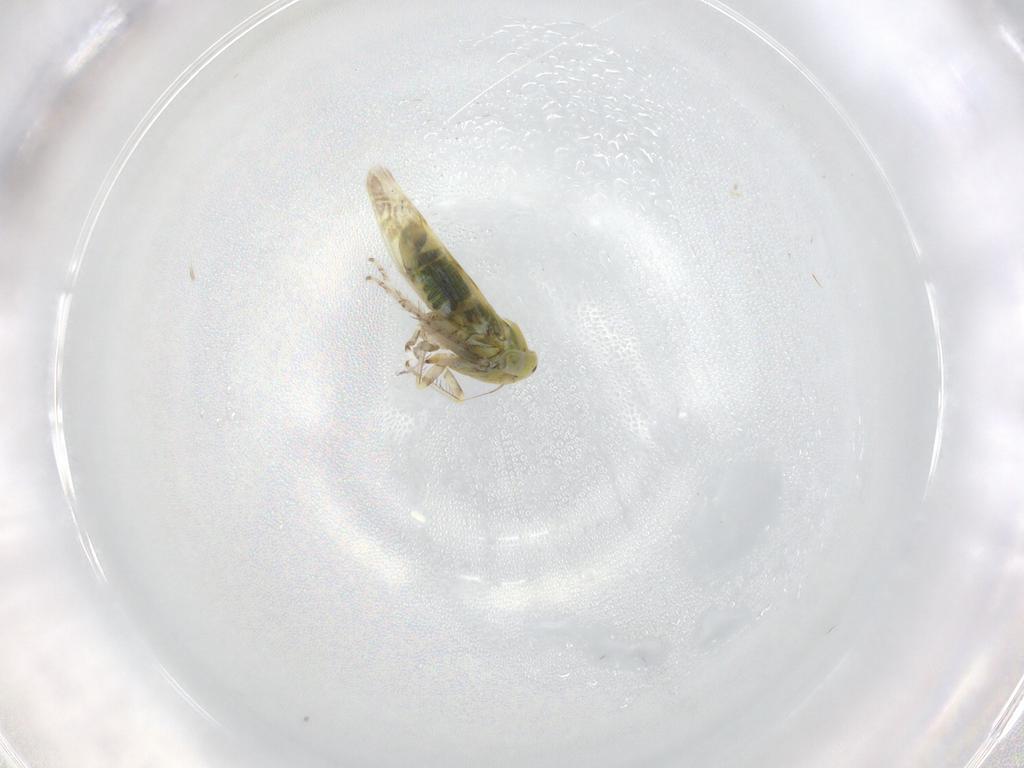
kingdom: Animalia
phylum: Arthropoda
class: Insecta
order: Hemiptera
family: Cicadellidae
